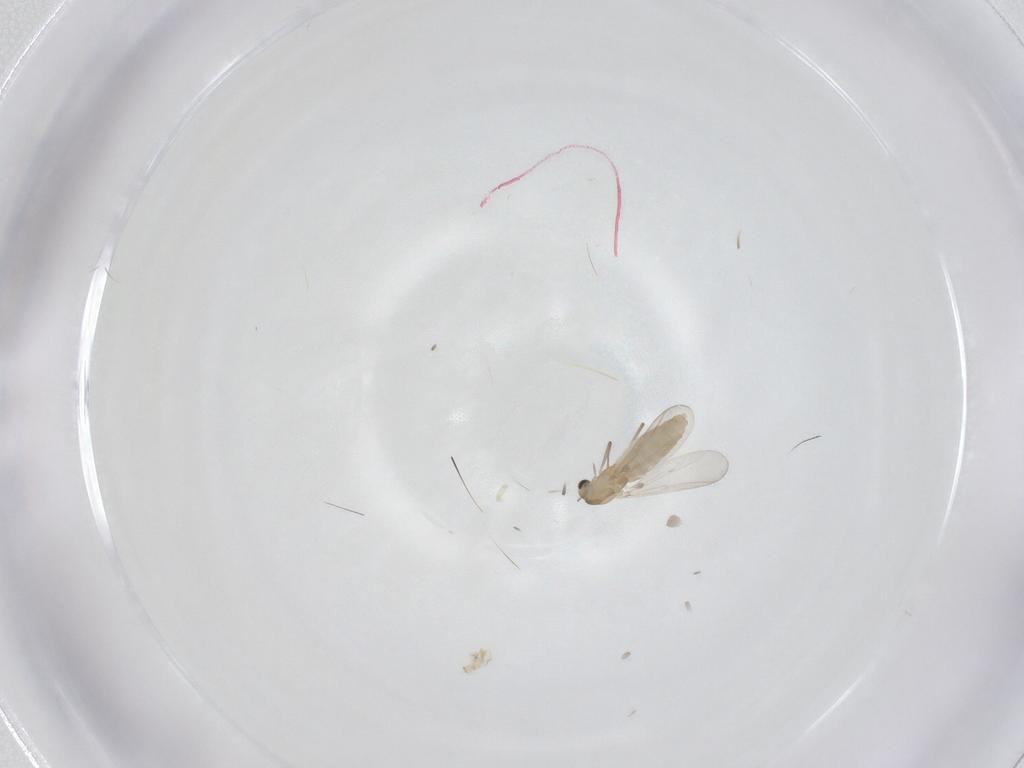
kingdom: Animalia
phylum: Arthropoda
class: Insecta
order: Diptera
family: Chironomidae
